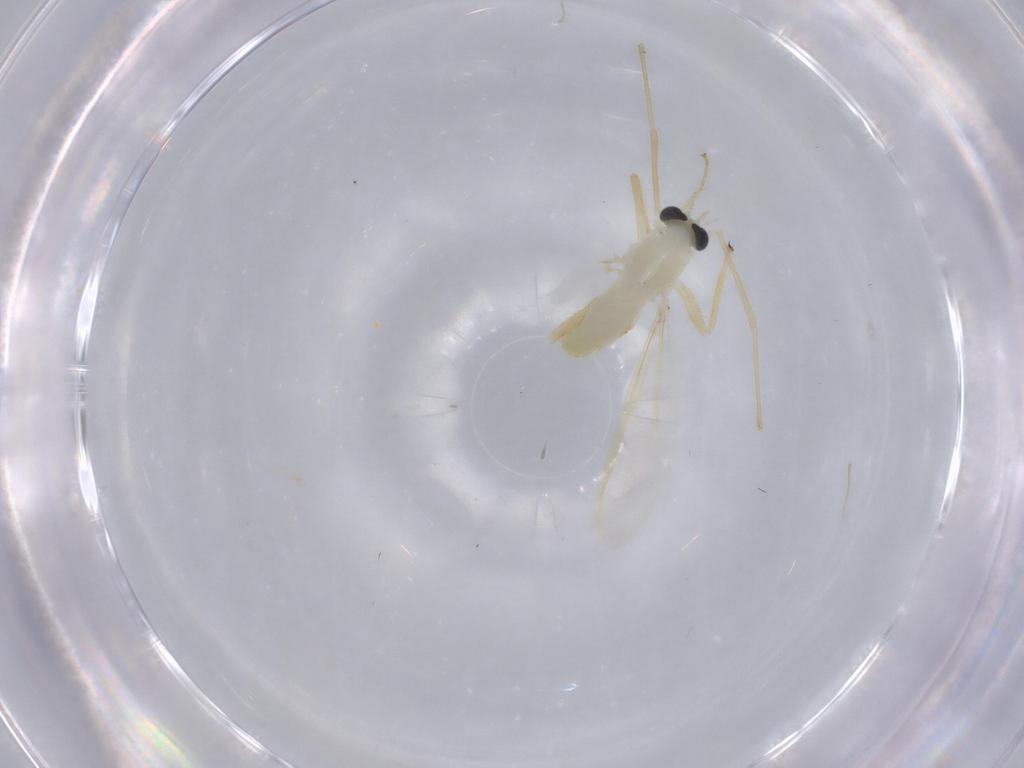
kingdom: Animalia
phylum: Arthropoda
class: Insecta
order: Diptera
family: Chironomidae
